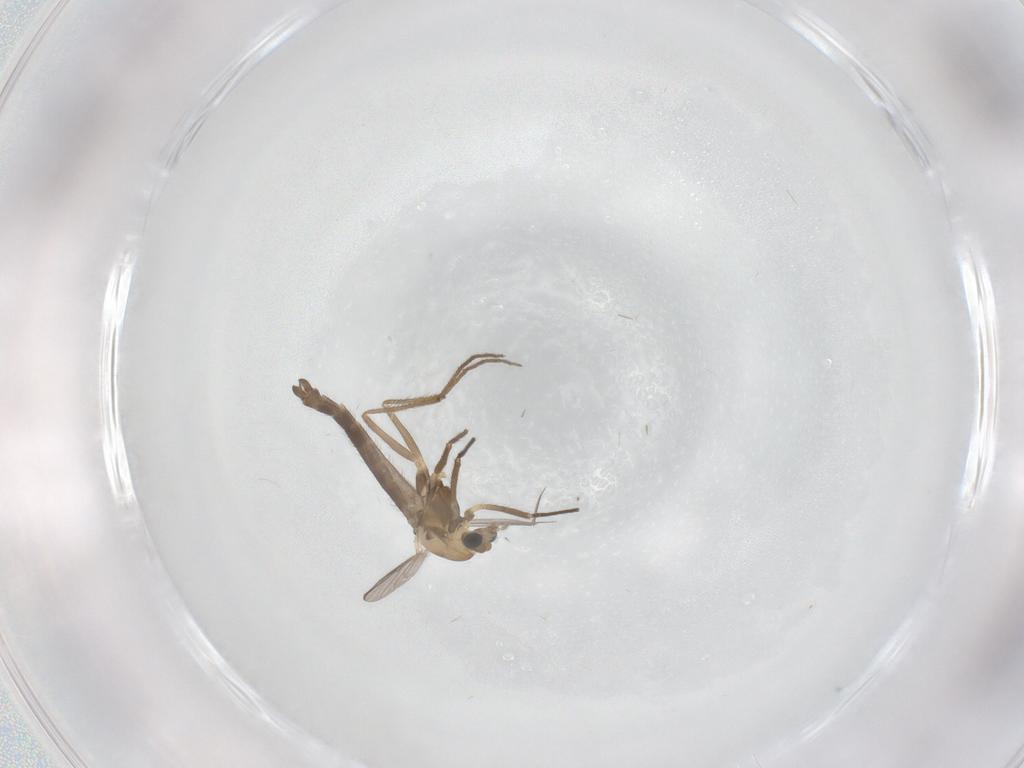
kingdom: Animalia
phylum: Arthropoda
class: Insecta
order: Diptera
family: Chironomidae
